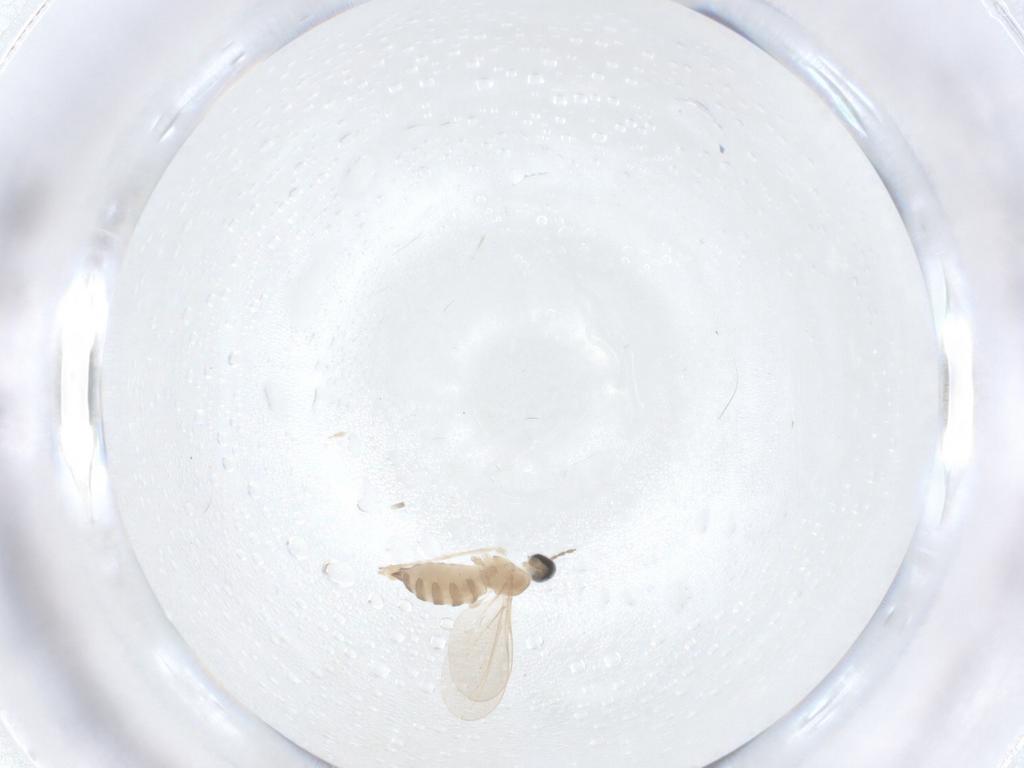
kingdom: Animalia
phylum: Arthropoda
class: Insecta
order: Diptera
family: Cecidomyiidae
